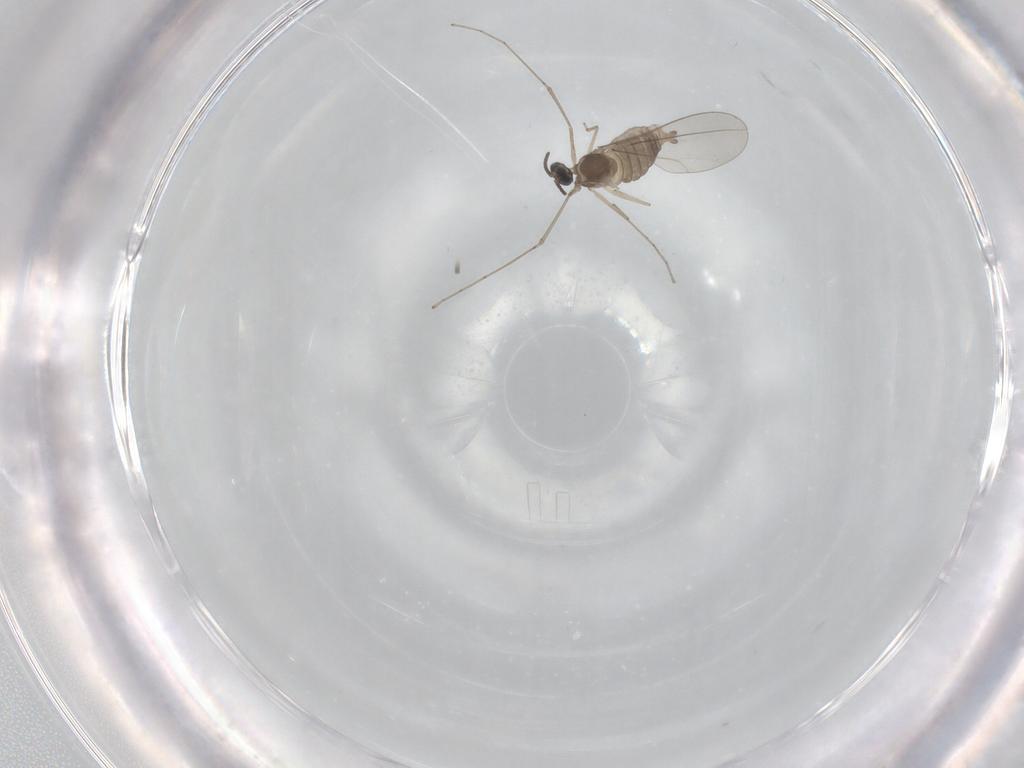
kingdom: Animalia
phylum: Arthropoda
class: Insecta
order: Diptera
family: Cecidomyiidae
